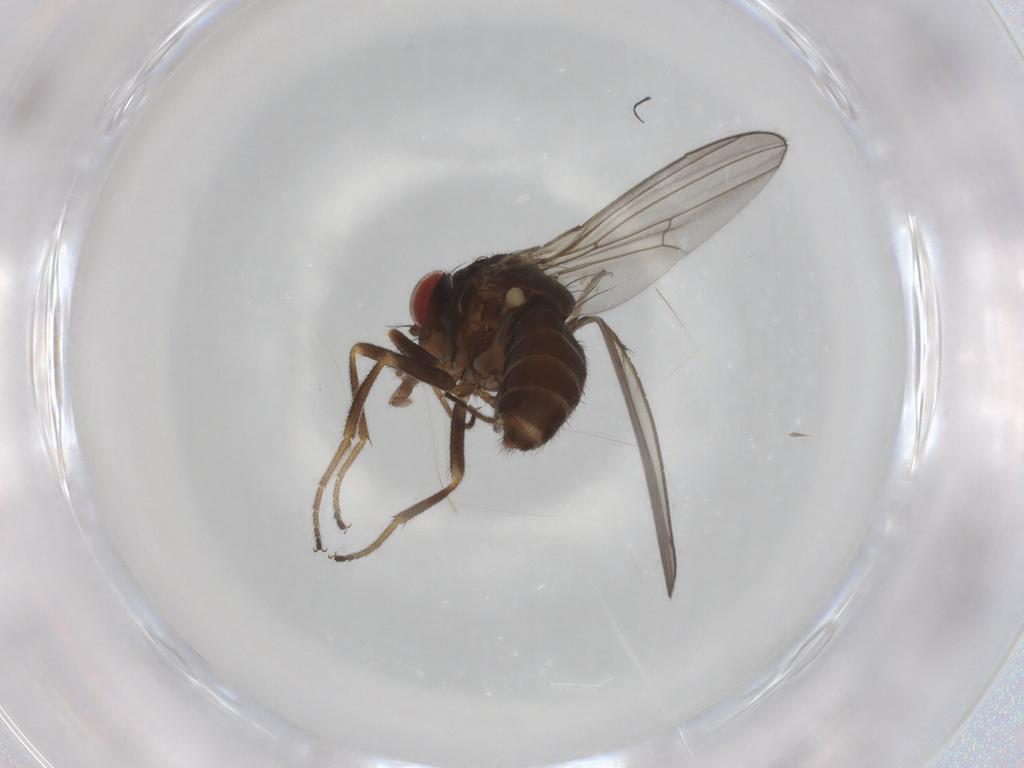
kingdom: Animalia
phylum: Arthropoda
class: Insecta
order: Diptera
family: Drosophilidae
